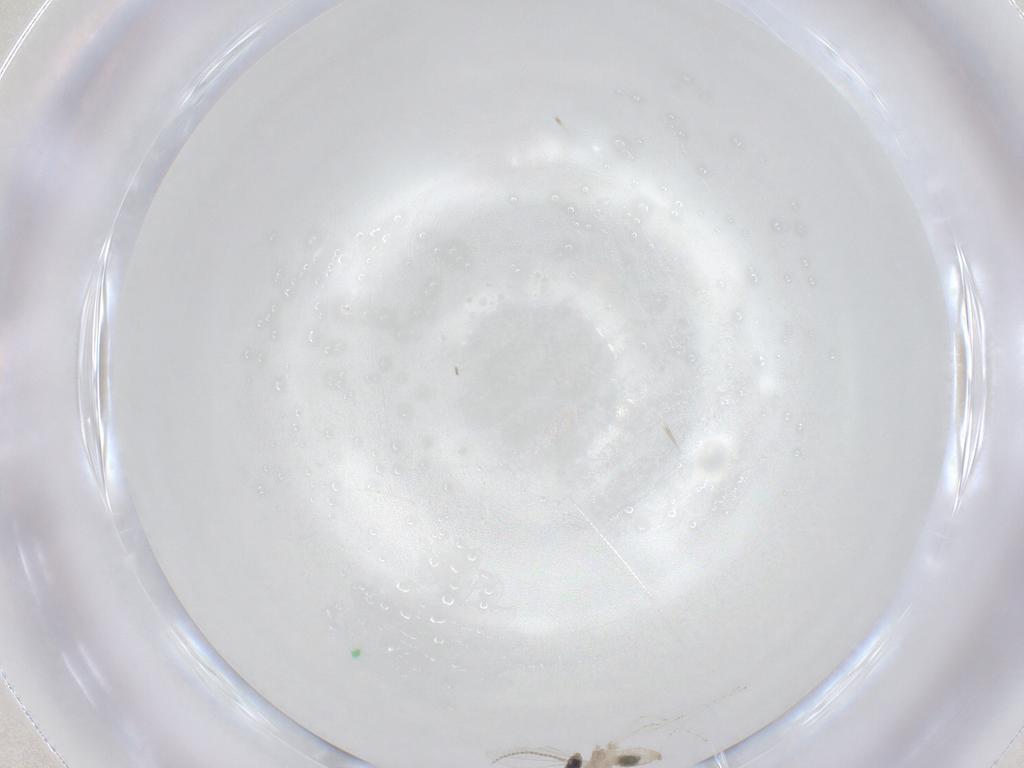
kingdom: Animalia
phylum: Arthropoda
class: Insecta
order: Diptera
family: Cecidomyiidae
